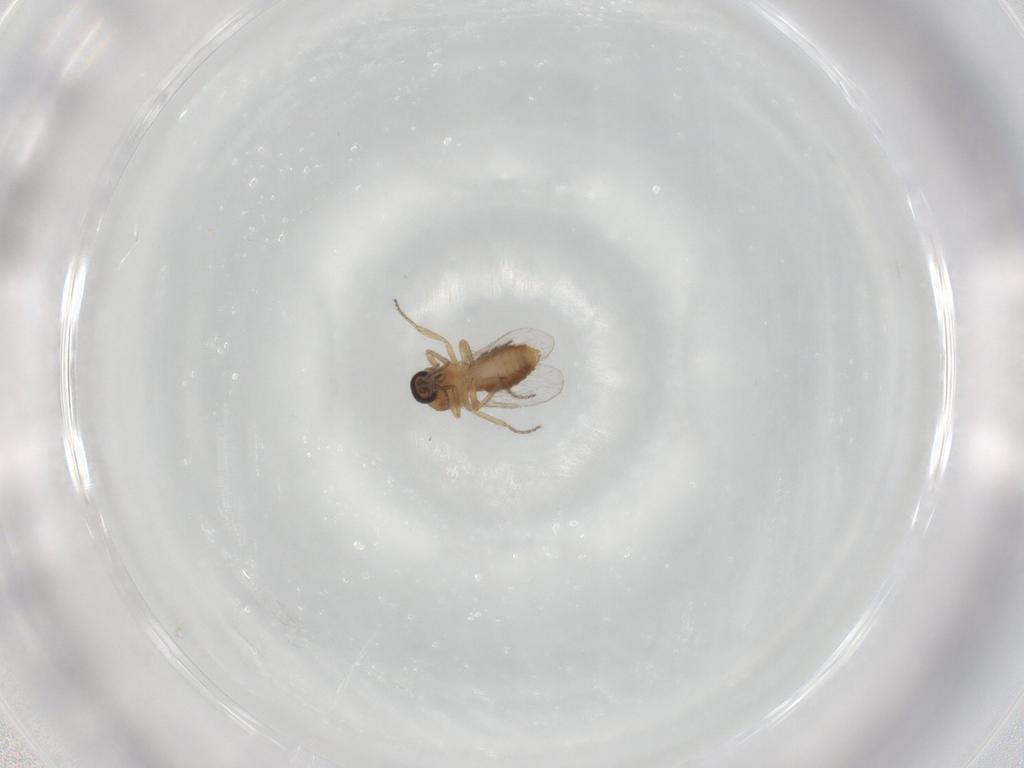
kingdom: Animalia
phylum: Arthropoda
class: Insecta
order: Diptera
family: Ceratopogonidae
